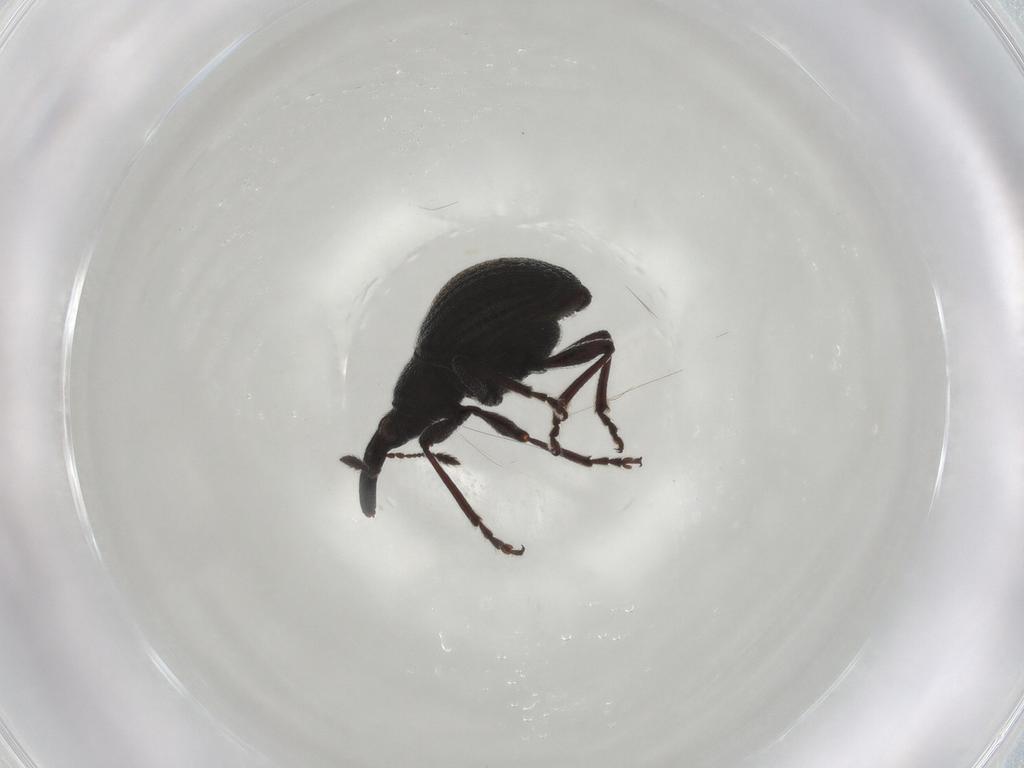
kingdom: Animalia
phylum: Arthropoda
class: Insecta
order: Coleoptera
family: Brentidae
